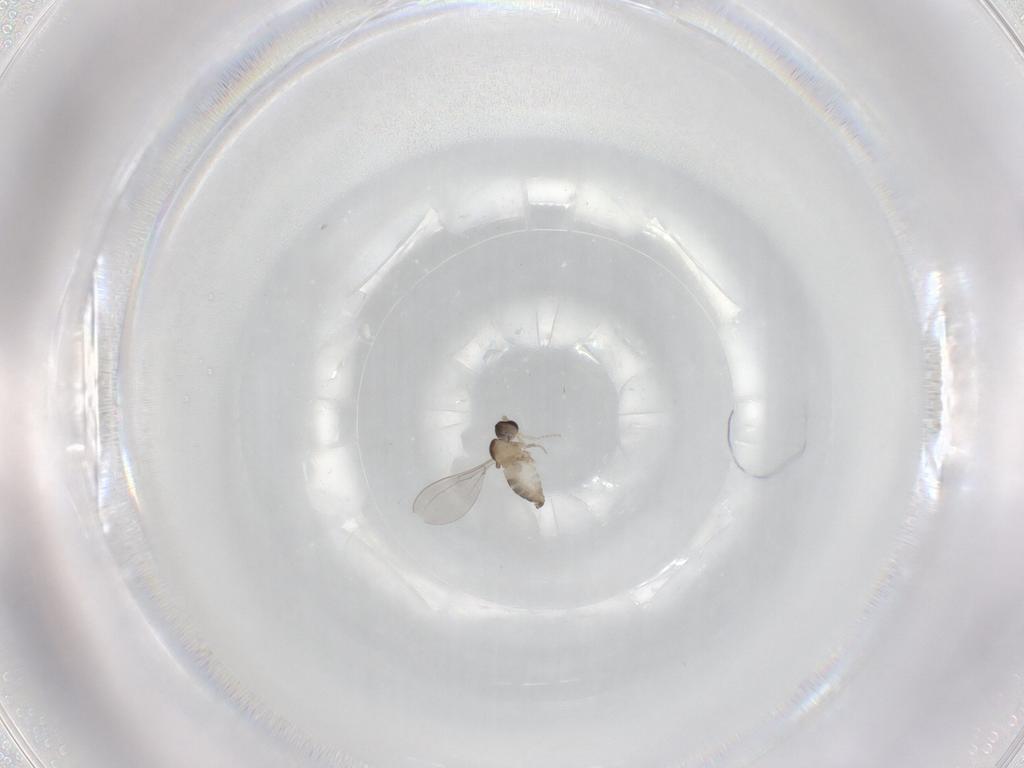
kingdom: Animalia
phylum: Arthropoda
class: Insecta
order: Diptera
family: Cecidomyiidae
